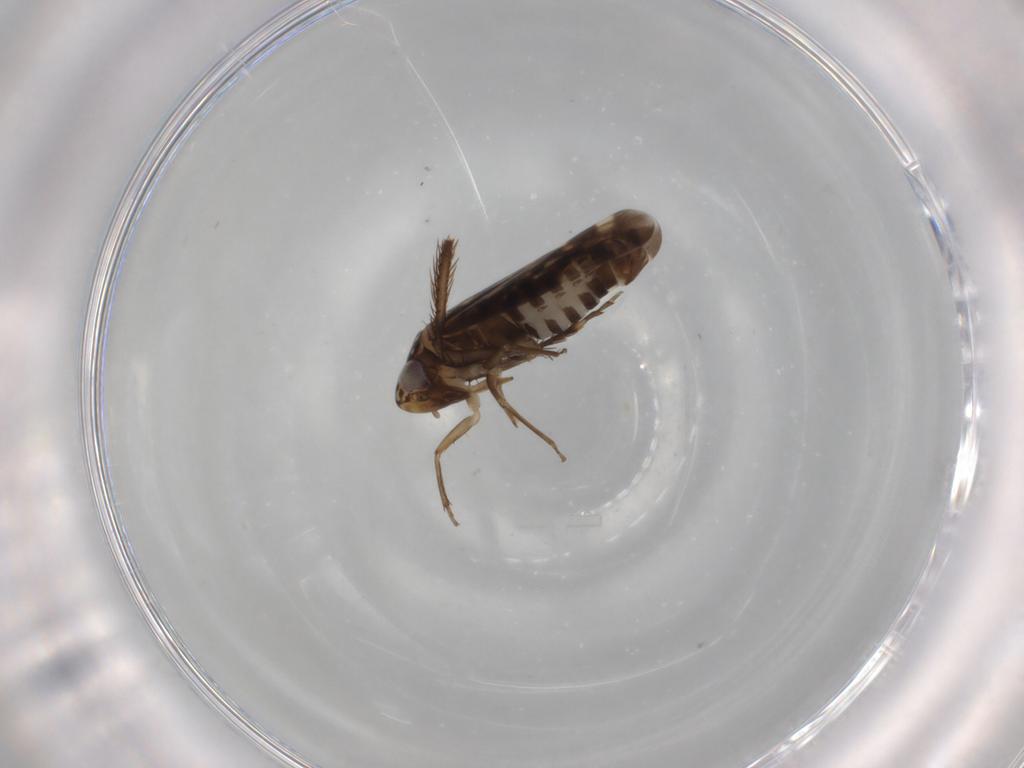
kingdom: Animalia
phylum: Arthropoda
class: Insecta
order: Hemiptera
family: Cicadellidae
